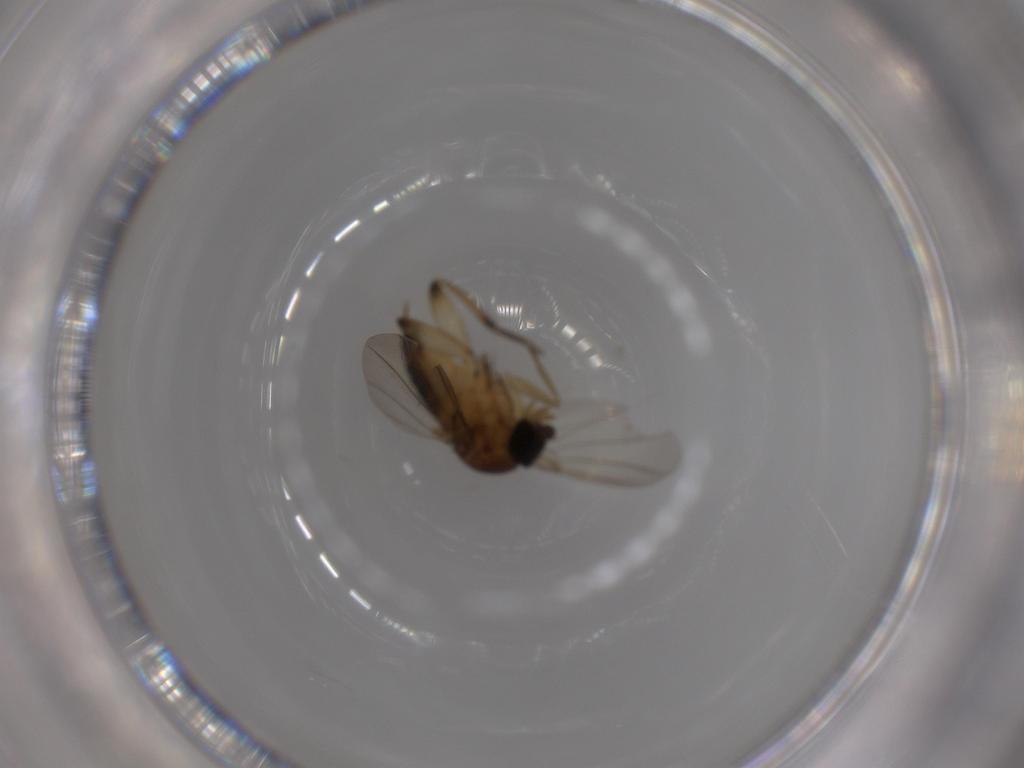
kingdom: Animalia
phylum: Arthropoda
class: Insecta
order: Diptera
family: Phoridae
